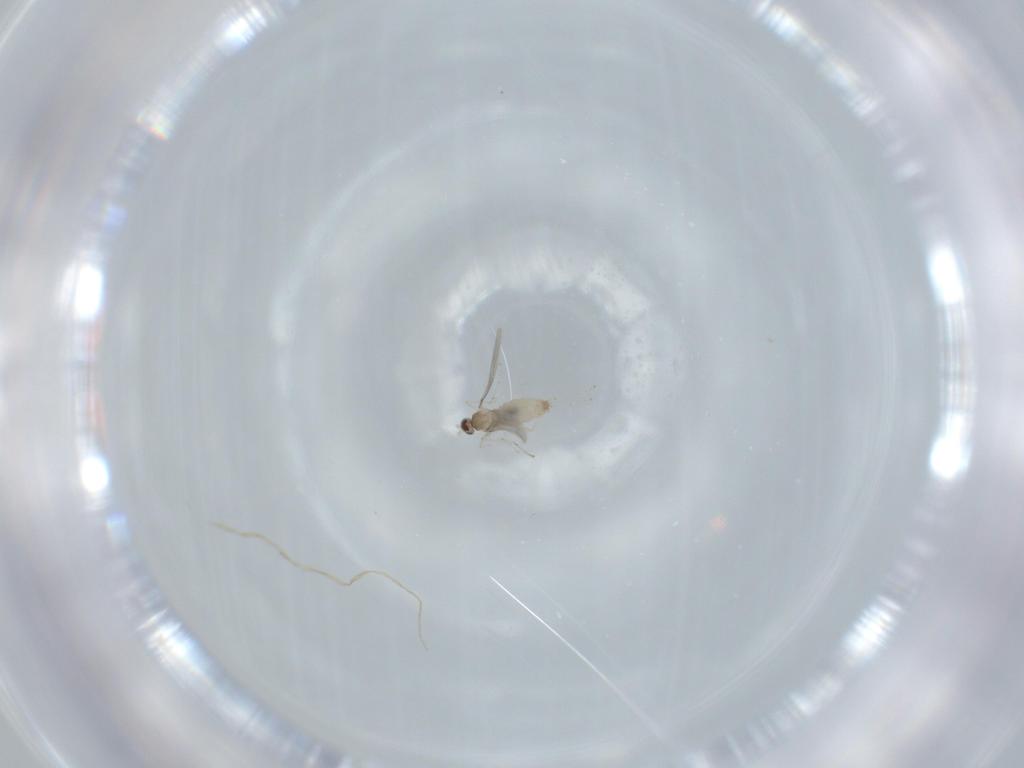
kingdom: Animalia
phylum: Arthropoda
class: Insecta
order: Diptera
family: Cecidomyiidae
